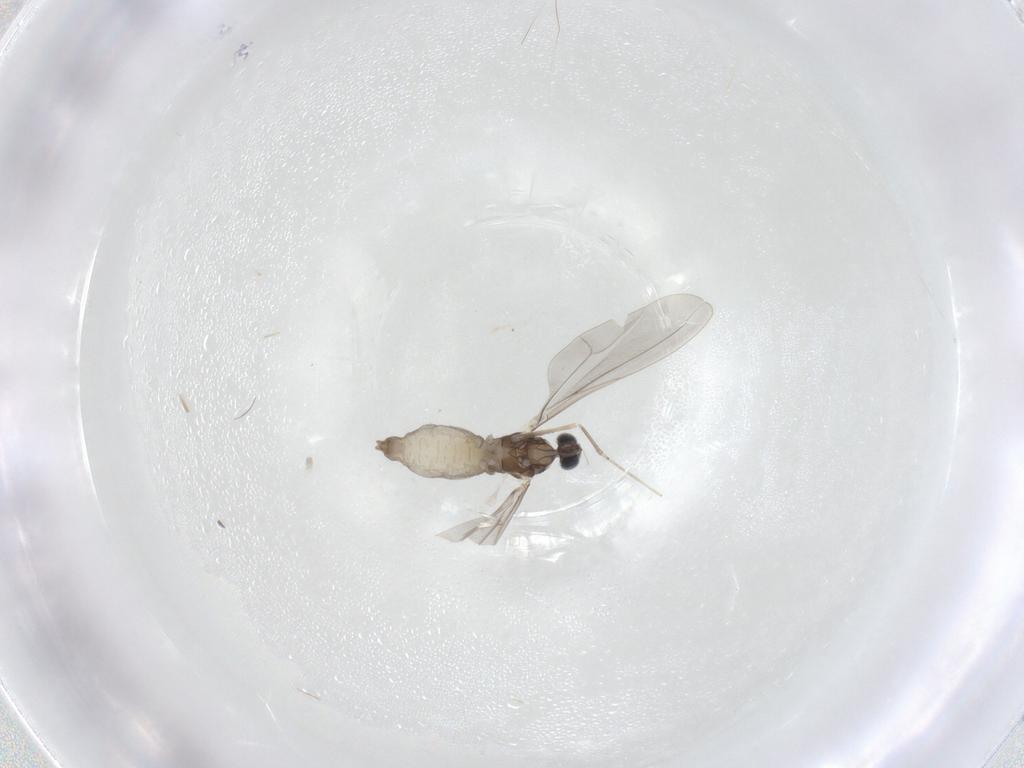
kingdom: Animalia
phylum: Arthropoda
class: Insecta
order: Diptera
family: Cecidomyiidae
